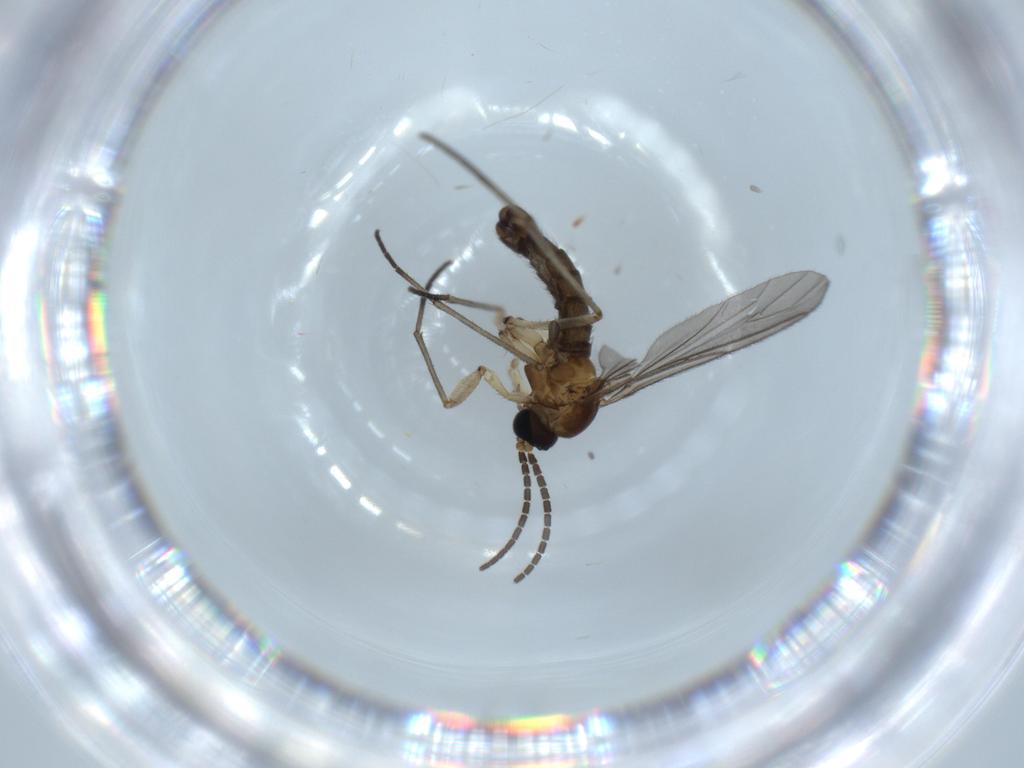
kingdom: Animalia
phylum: Arthropoda
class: Insecta
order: Diptera
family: Sciaridae
